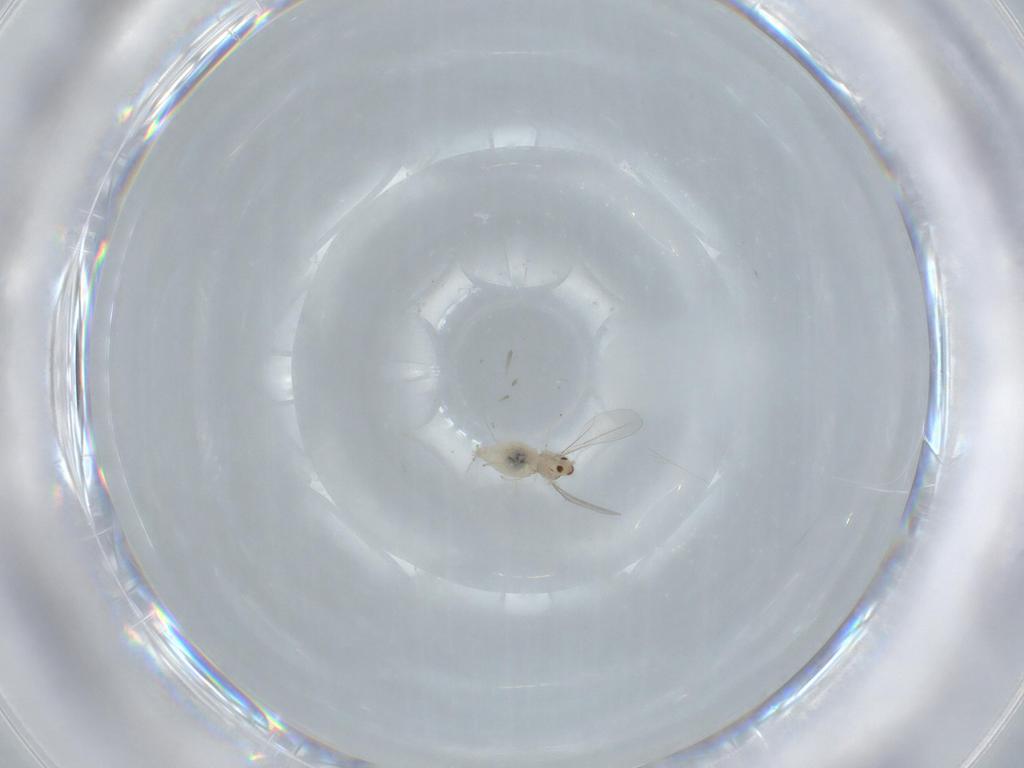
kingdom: Animalia
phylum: Arthropoda
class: Insecta
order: Diptera
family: Cecidomyiidae
